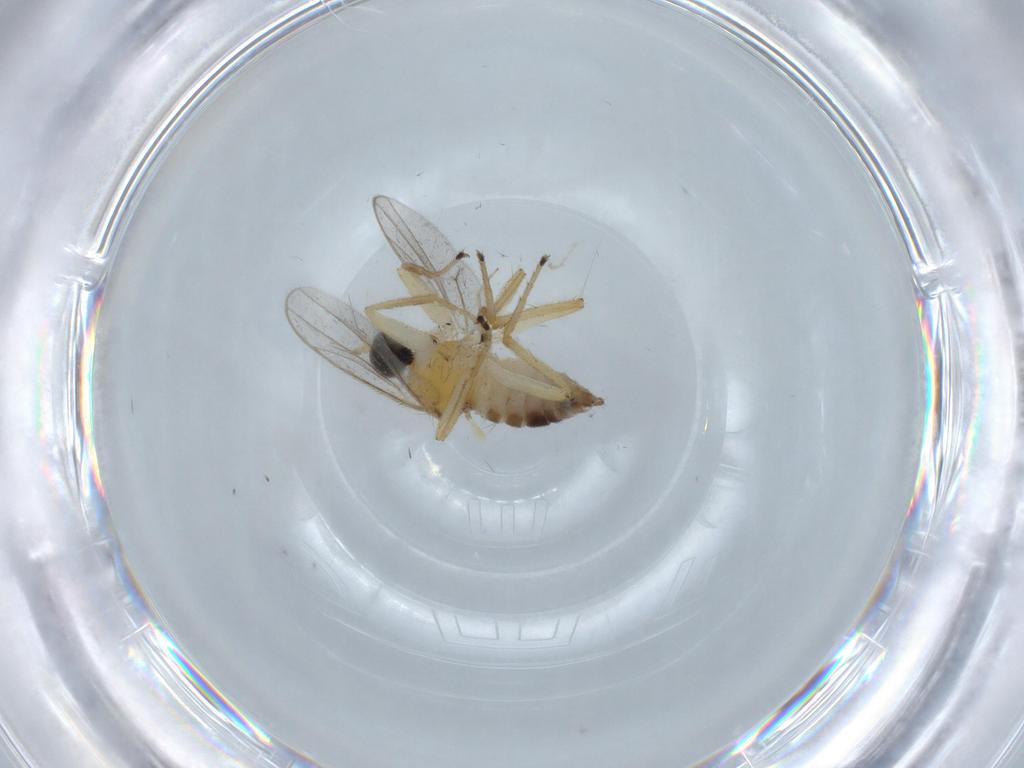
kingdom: Animalia
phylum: Arthropoda
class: Insecta
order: Diptera
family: Hybotidae
